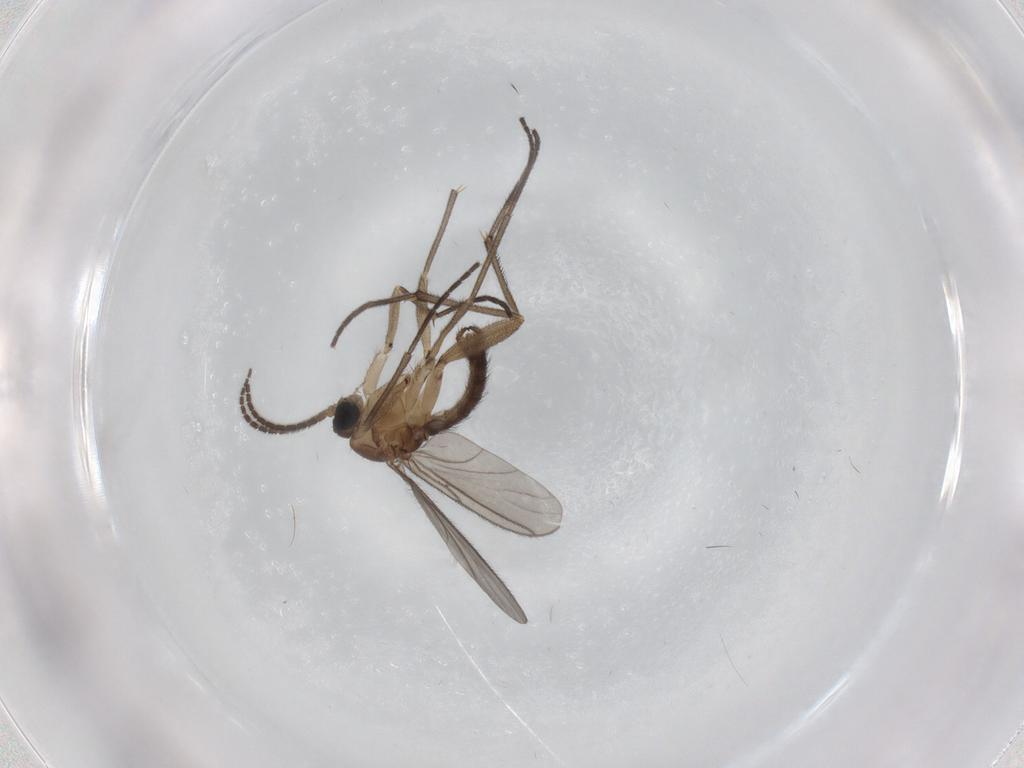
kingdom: Animalia
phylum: Arthropoda
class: Insecta
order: Diptera
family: Sciaridae
